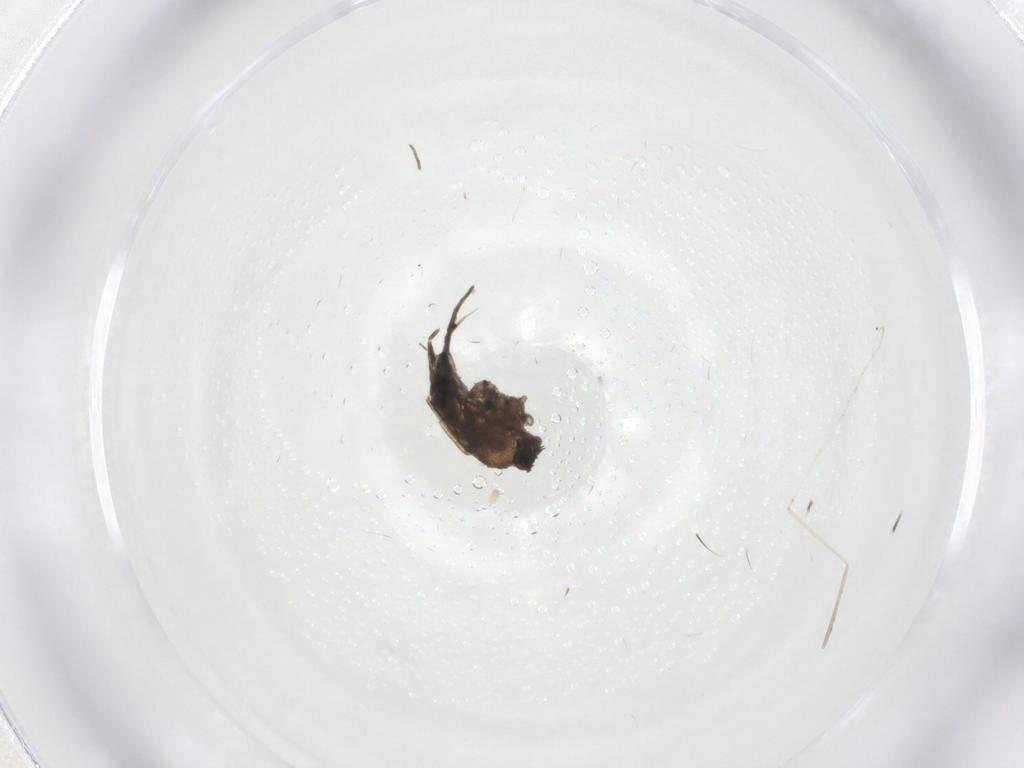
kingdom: Animalia
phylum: Arthropoda
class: Insecta
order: Diptera
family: Cecidomyiidae
